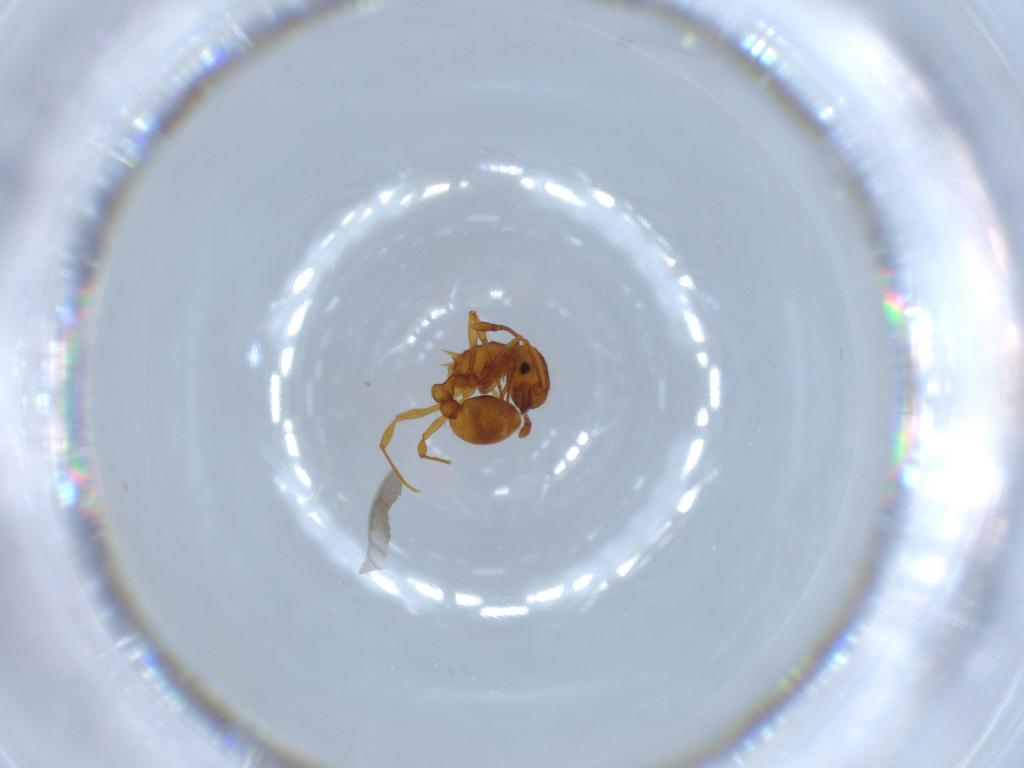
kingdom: Animalia
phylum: Arthropoda
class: Insecta
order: Hymenoptera
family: Formicidae
